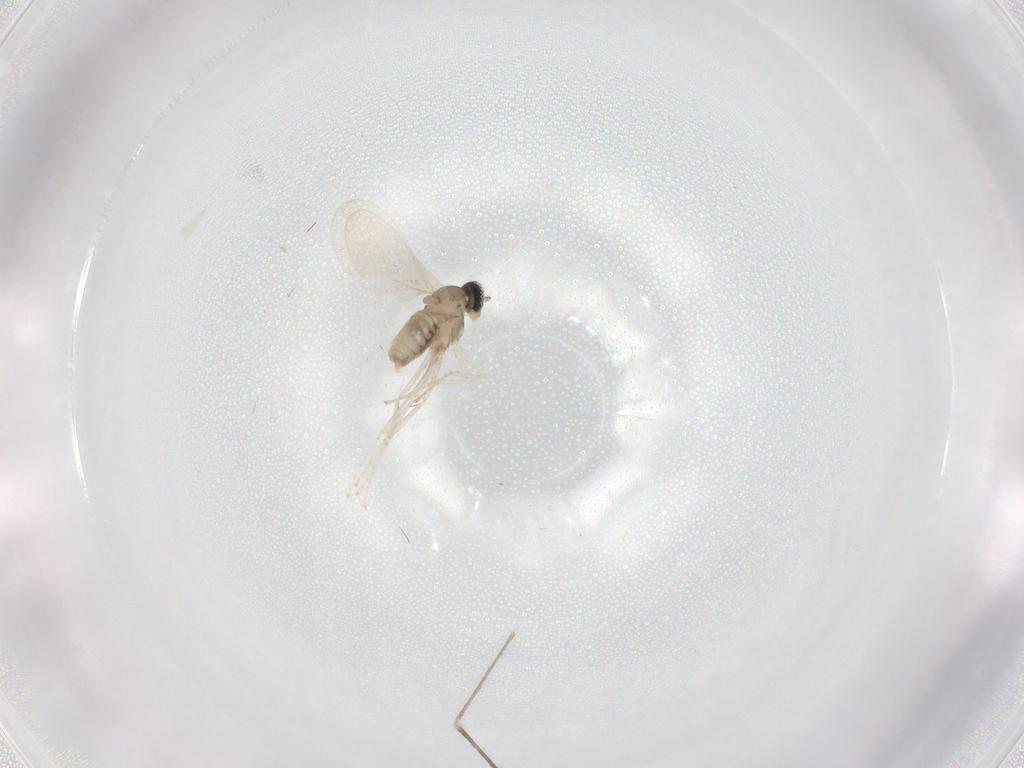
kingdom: Animalia
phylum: Arthropoda
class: Insecta
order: Diptera
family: Cecidomyiidae
